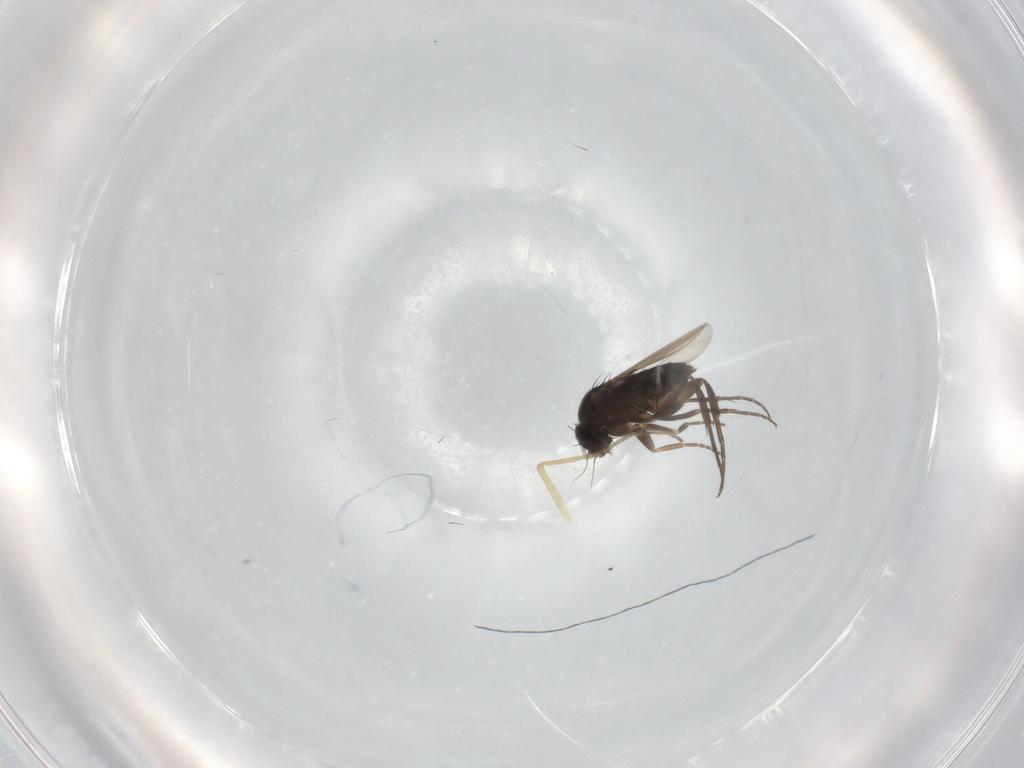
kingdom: Animalia
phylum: Arthropoda
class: Insecta
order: Diptera
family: Phoridae
